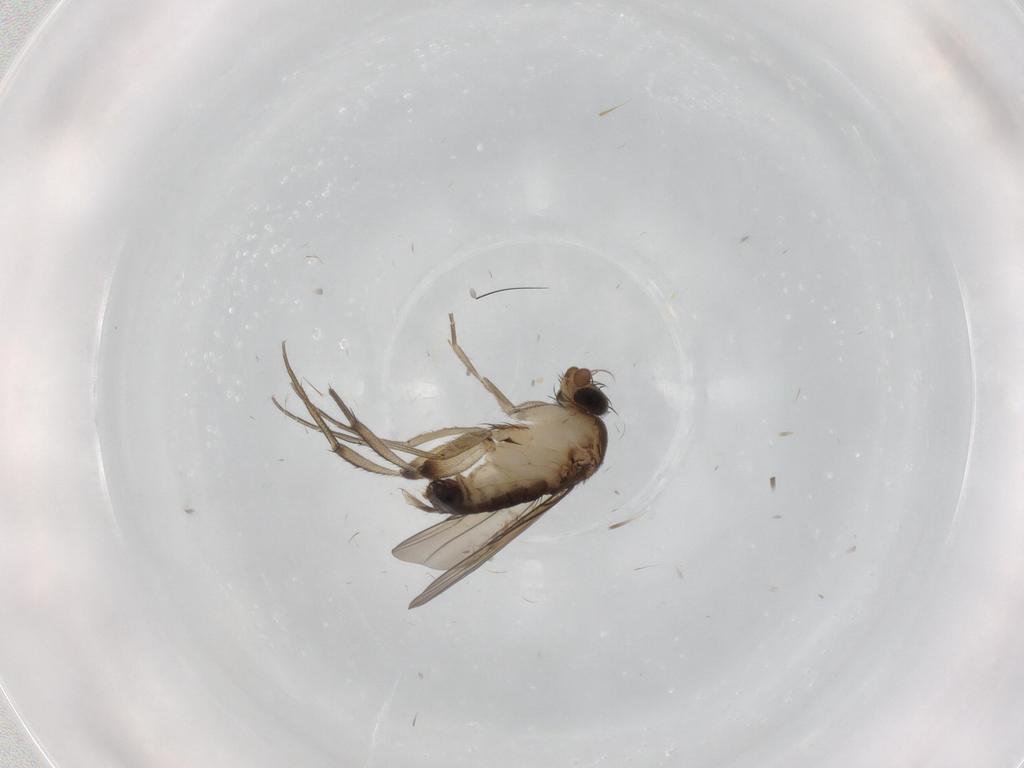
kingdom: Animalia
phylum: Arthropoda
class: Insecta
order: Diptera
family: Phoridae
